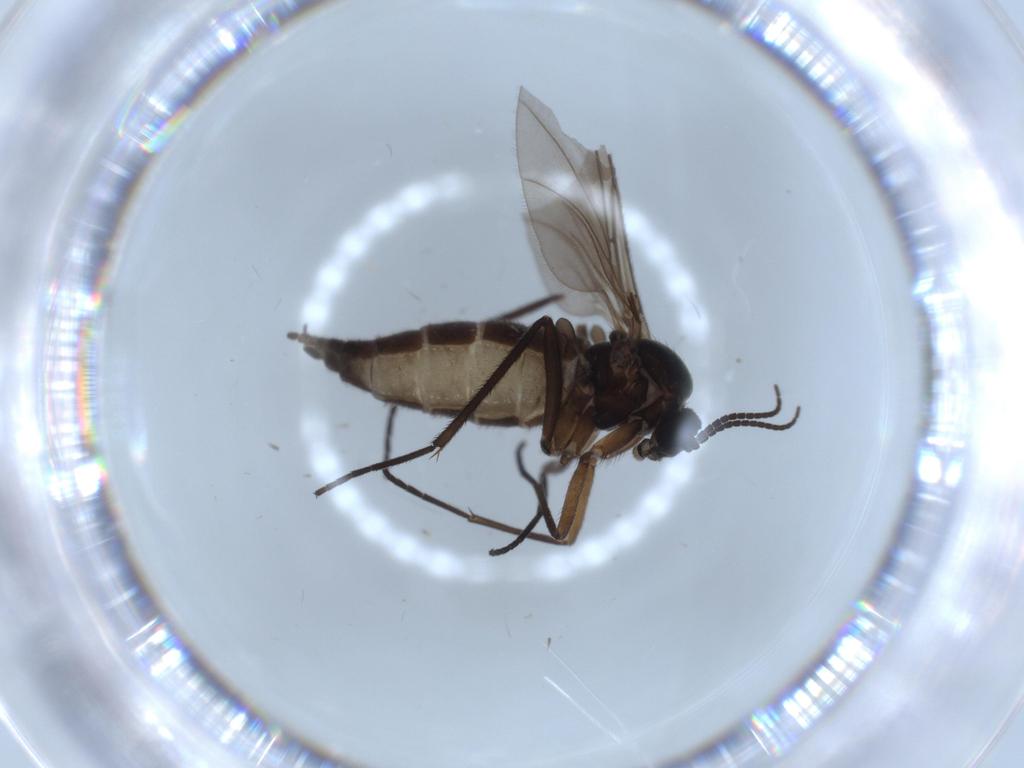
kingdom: Animalia
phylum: Arthropoda
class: Insecta
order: Diptera
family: Sciaridae
